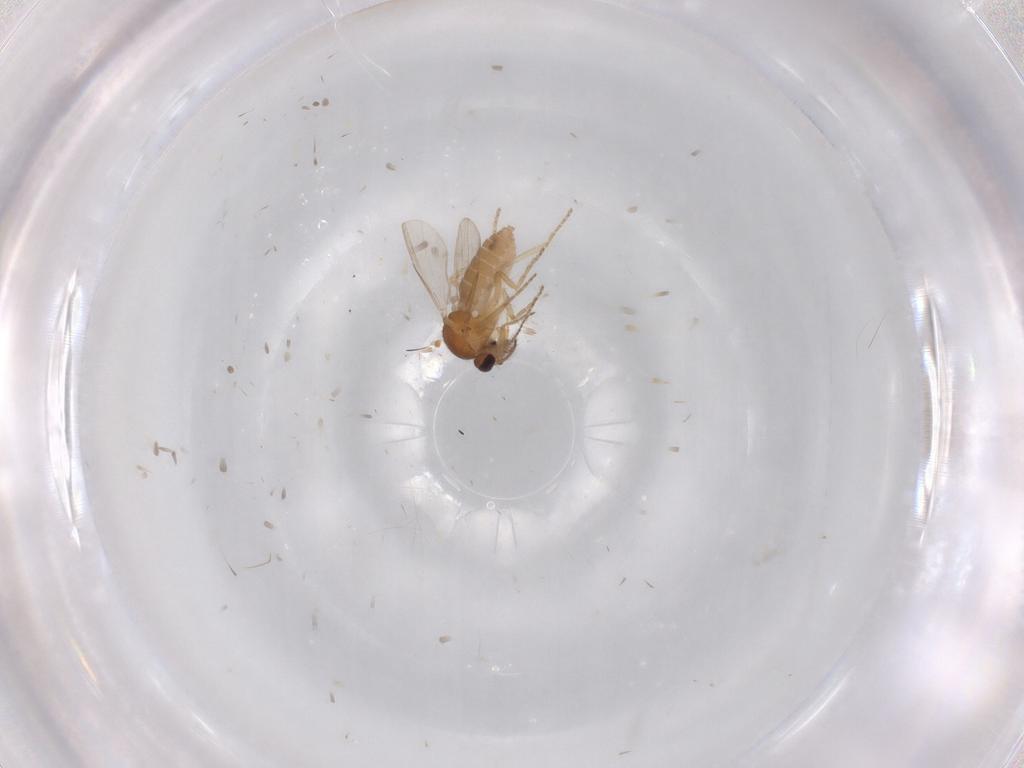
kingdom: Animalia
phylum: Arthropoda
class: Insecta
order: Diptera
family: Ceratopogonidae
